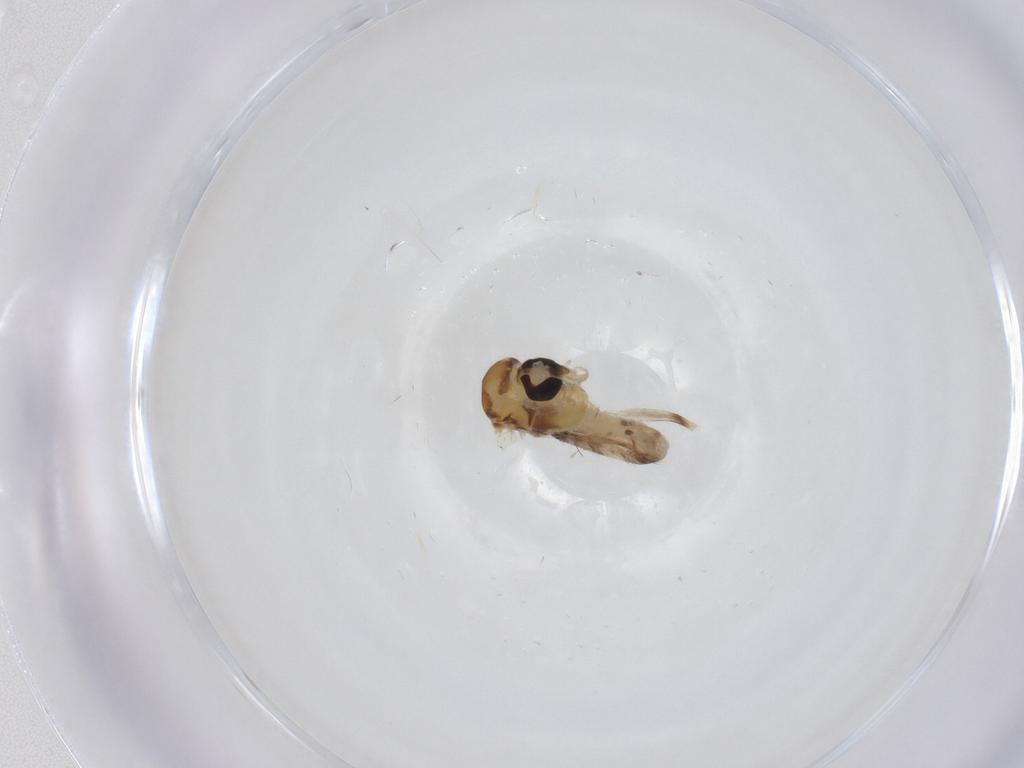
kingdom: Animalia
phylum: Arthropoda
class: Insecta
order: Diptera
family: Chironomidae
